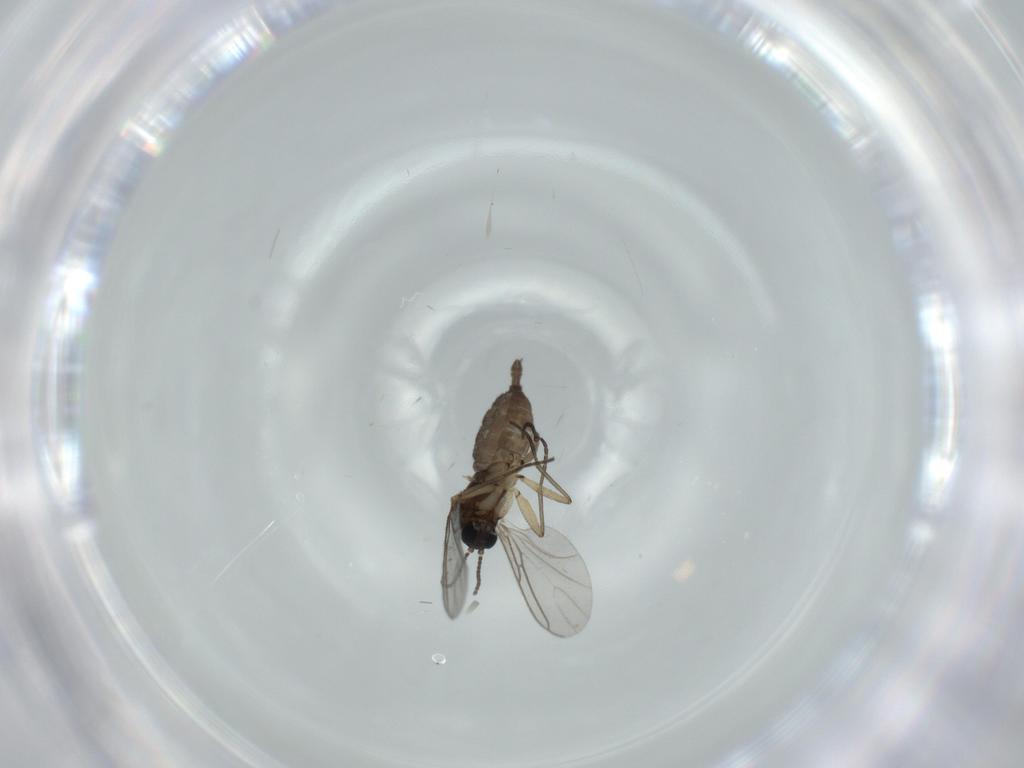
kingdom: Animalia
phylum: Arthropoda
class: Insecta
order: Diptera
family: Sciaridae
